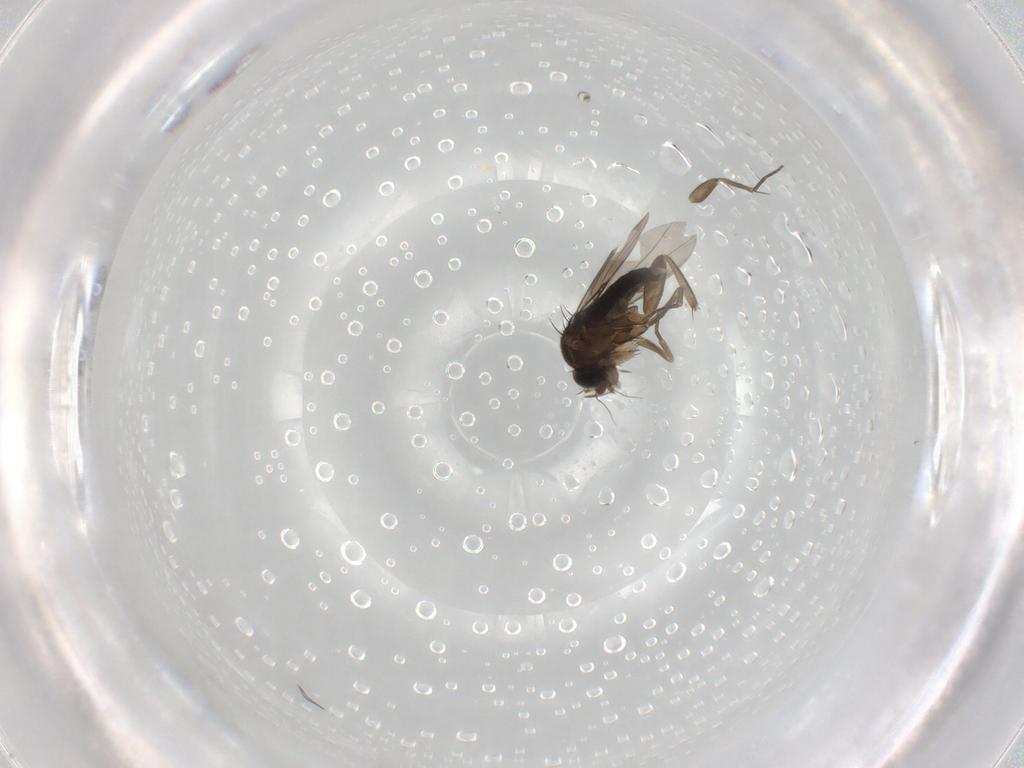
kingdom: Animalia
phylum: Arthropoda
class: Insecta
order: Diptera
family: Phoridae
